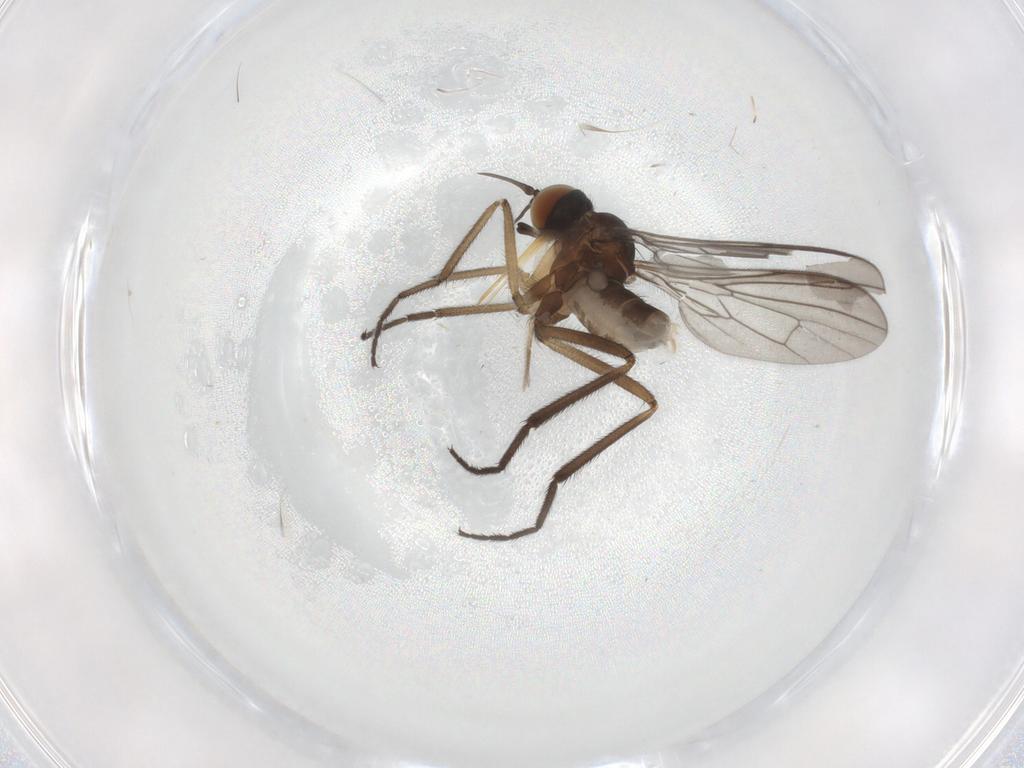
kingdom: Animalia
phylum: Arthropoda
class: Insecta
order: Diptera
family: Empididae
